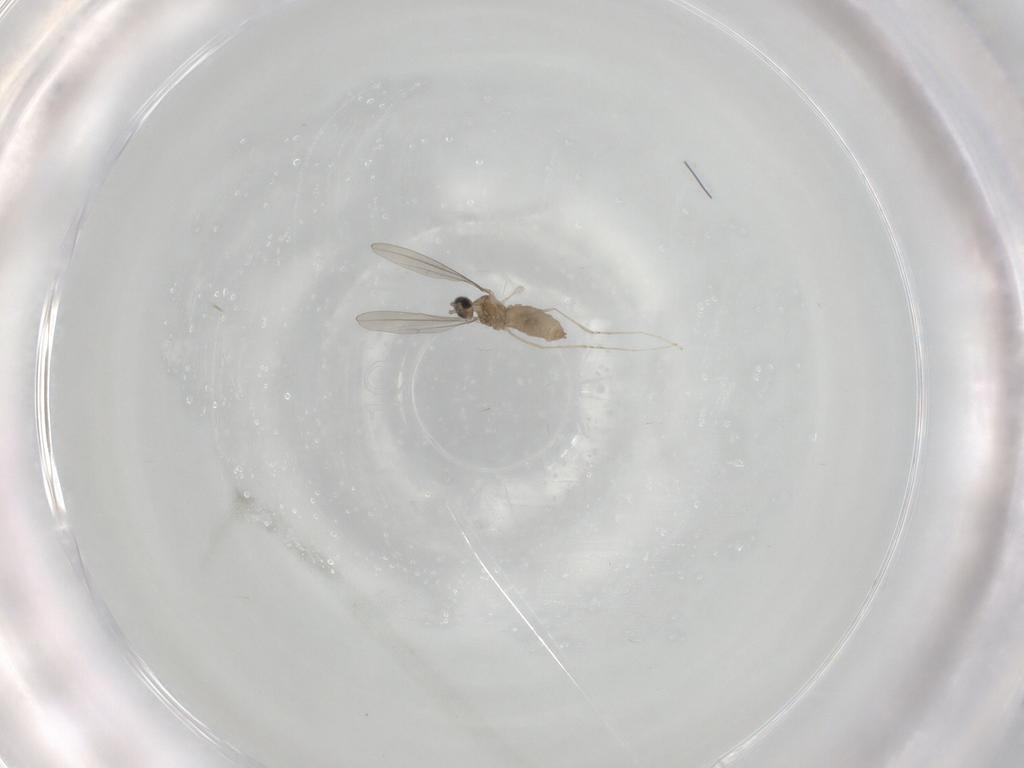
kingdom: Animalia
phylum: Arthropoda
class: Insecta
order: Diptera
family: Cecidomyiidae
